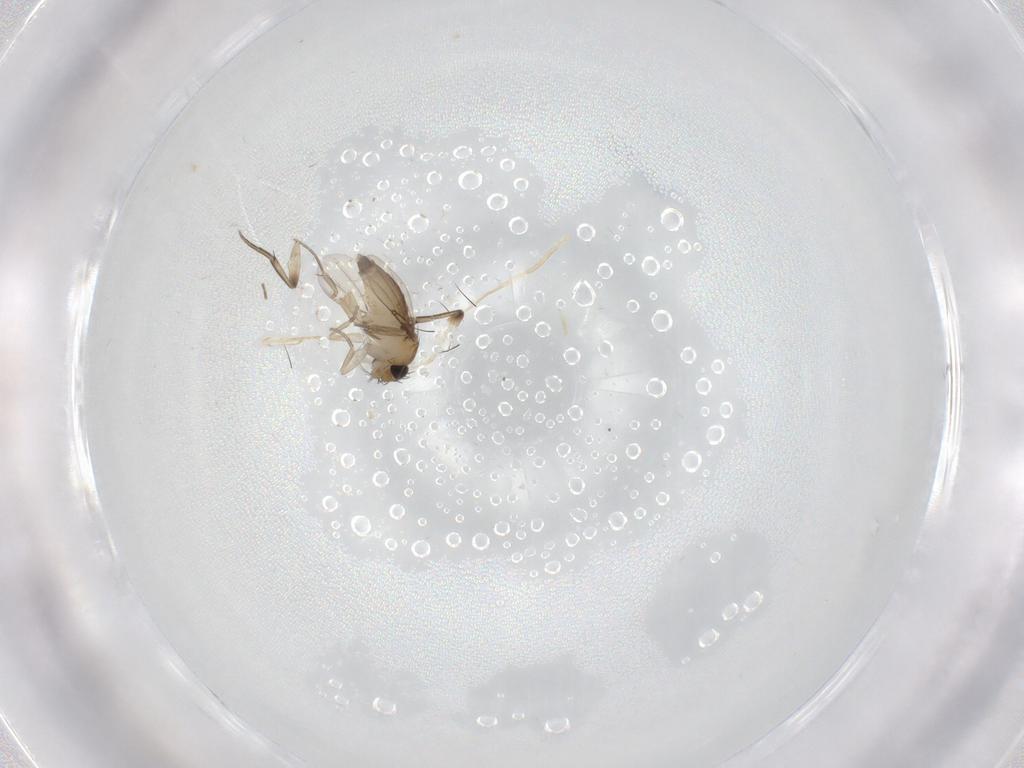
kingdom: Animalia
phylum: Arthropoda
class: Insecta
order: Diptera
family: Phoridae
